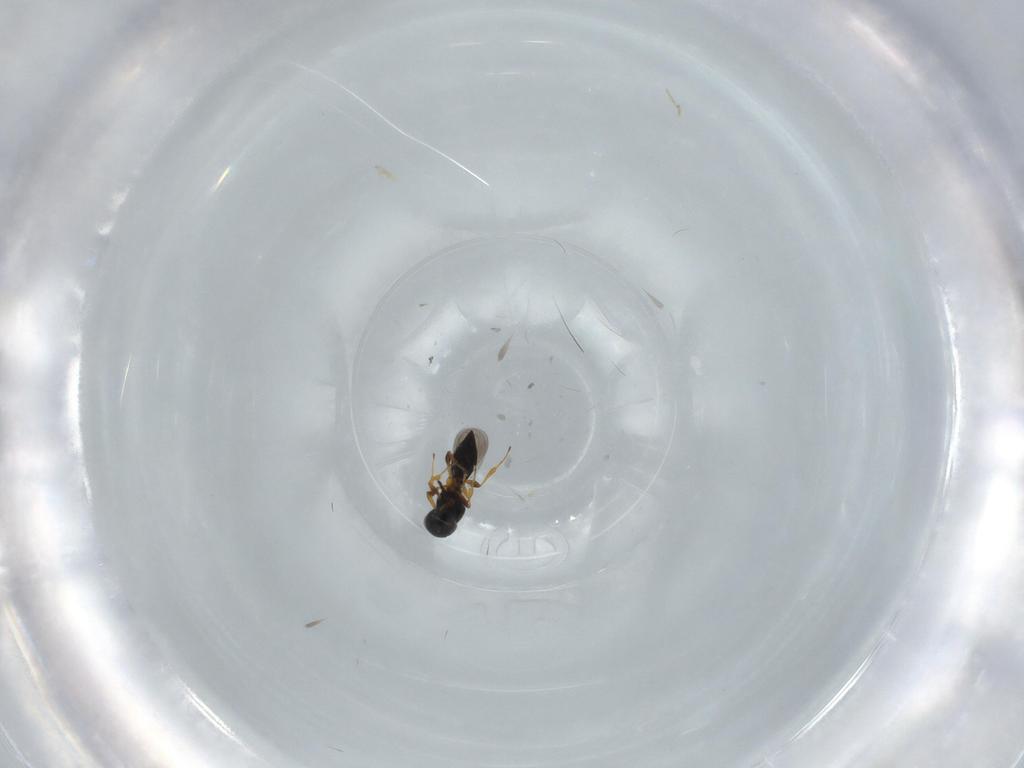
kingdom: Animalia
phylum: Arthropoda
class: Insecta
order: Hymenoptera
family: Platygastridae
